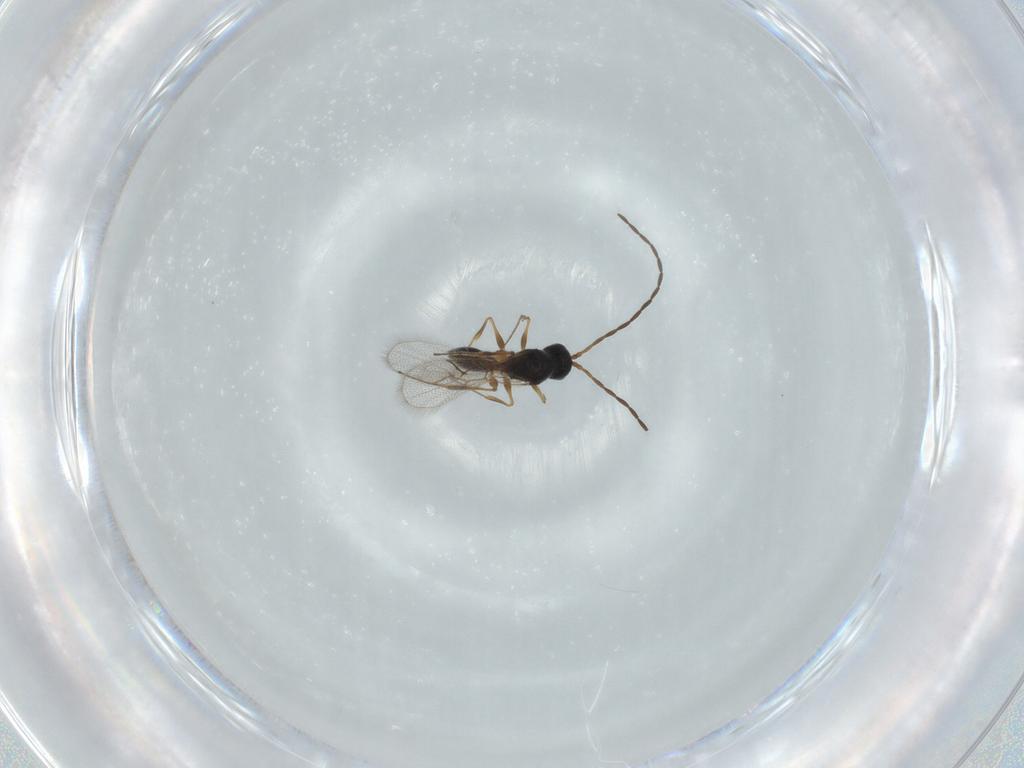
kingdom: Animalia
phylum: Arthropoda
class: Insecta
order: Hymenoptera
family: Figitidae
